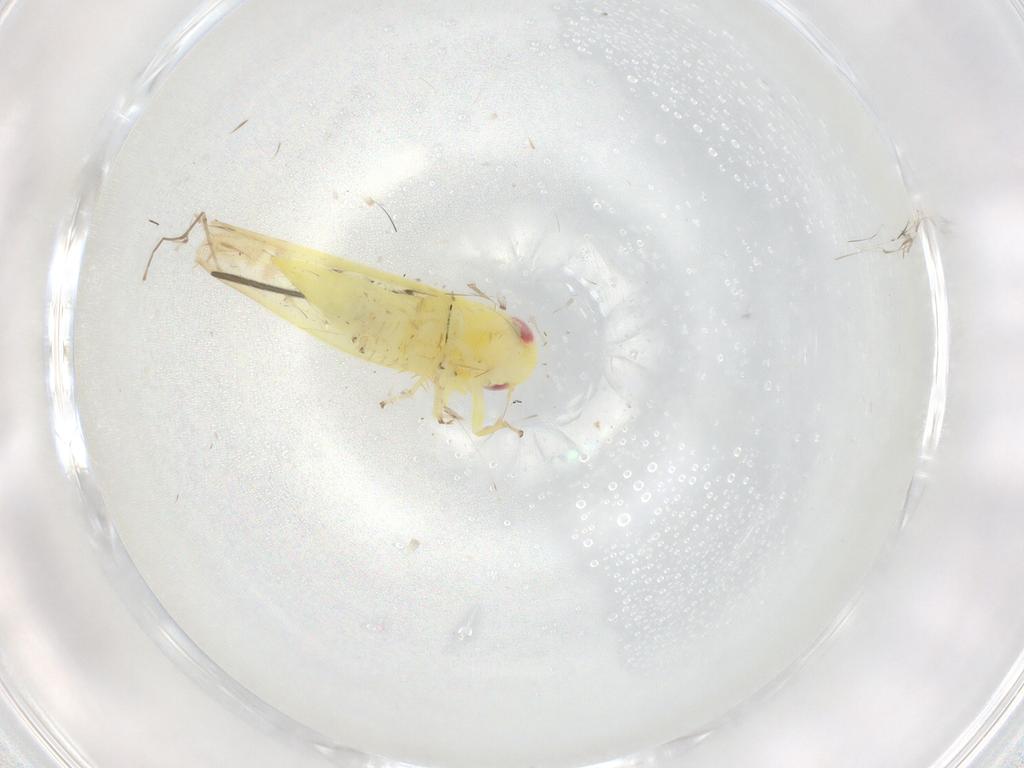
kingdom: Animalia
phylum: Arthropoda
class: Insecta
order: Hemiptera
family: Cicadellidae
